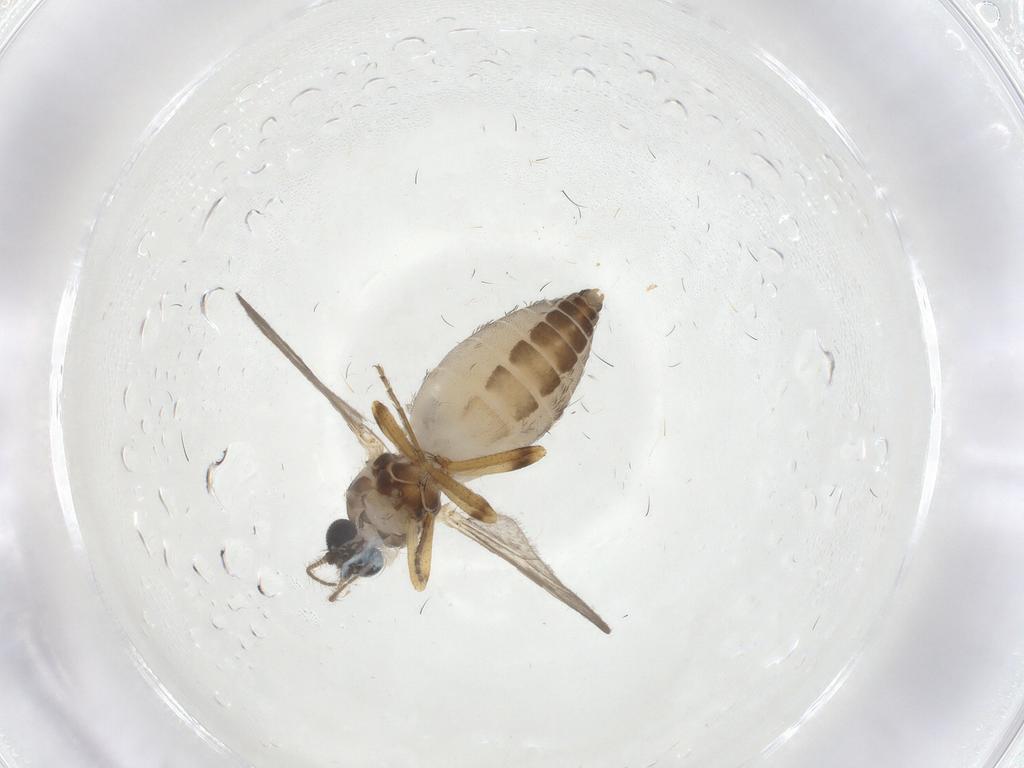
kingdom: Animalia
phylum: Arthropoda
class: Insecta
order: Diptera
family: Ceratopogonidae
